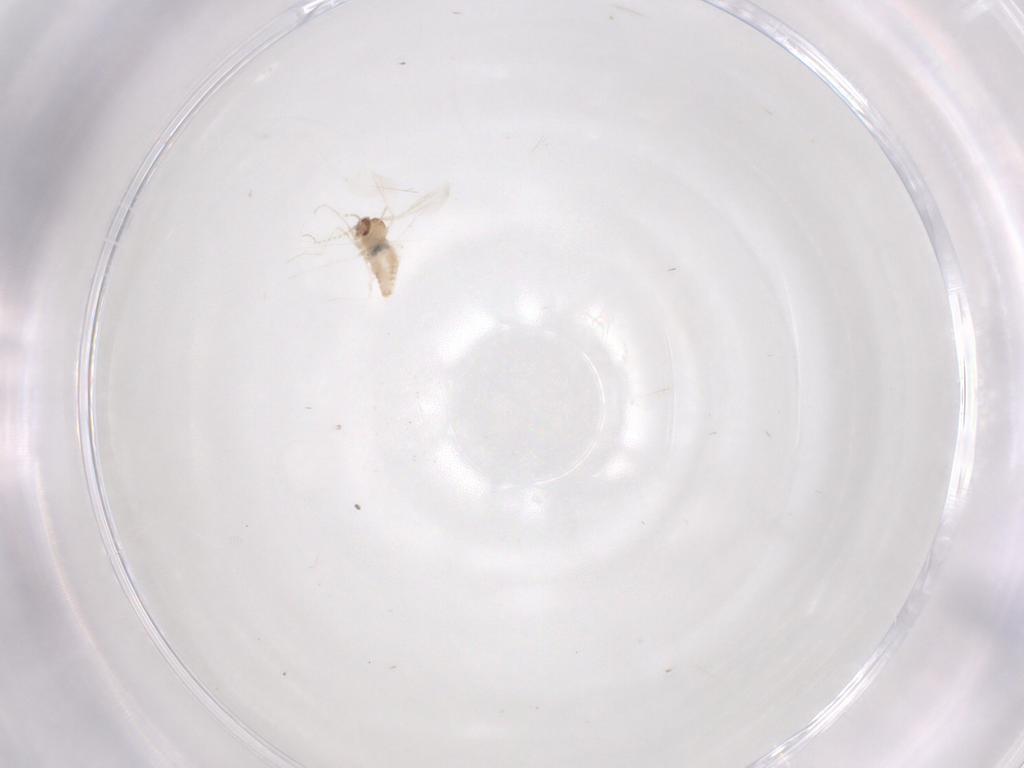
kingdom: Animalia
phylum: Arthropoda
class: Insecta
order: Diptera
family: Cecidomyiidae
